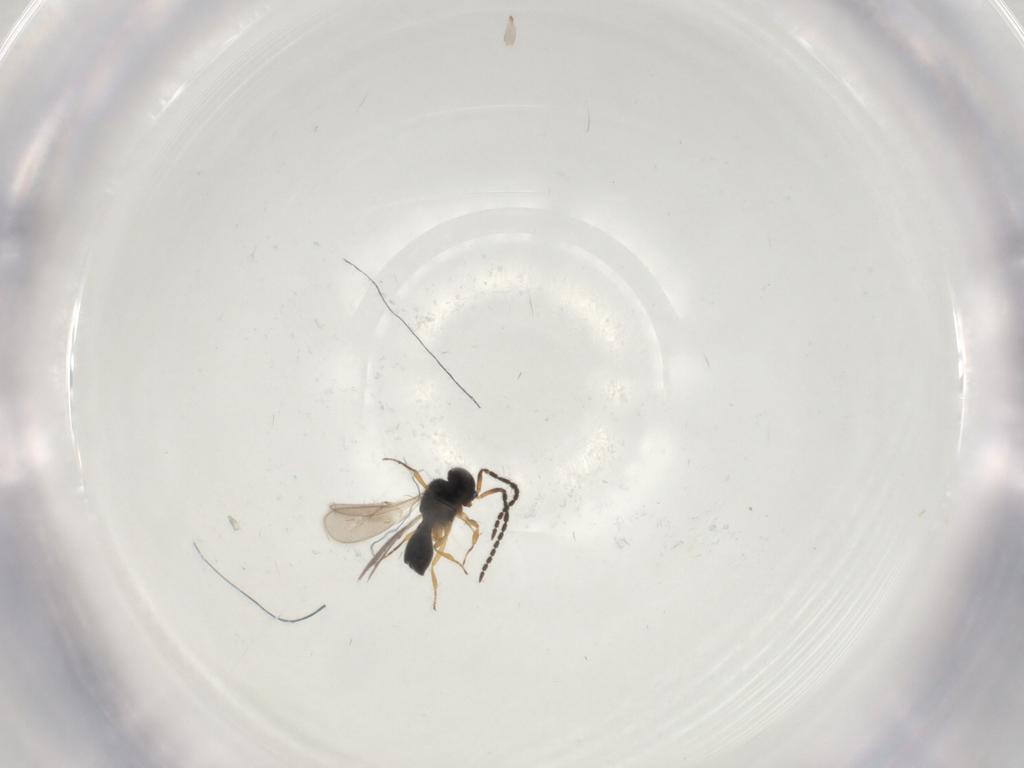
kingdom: Animalia
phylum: Arthropoda
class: Insecta
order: Hymenoptera
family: Scelionidae
